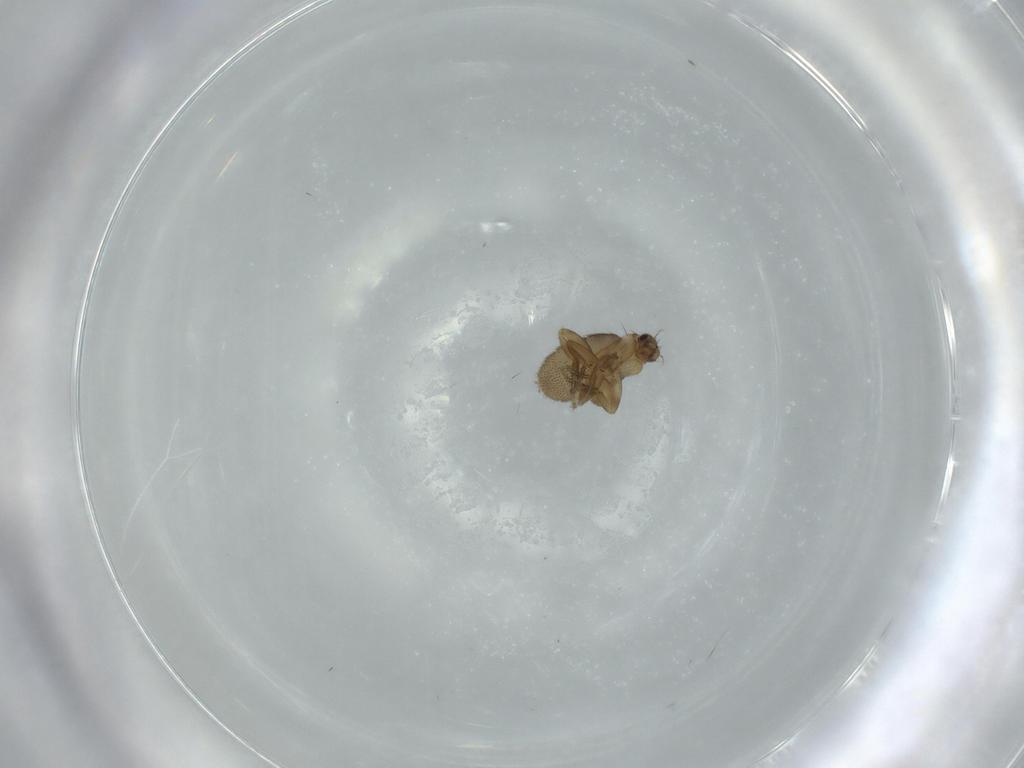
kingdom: Animalia
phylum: Arthropoda
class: Insecta
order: Diptera
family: Phoridae
